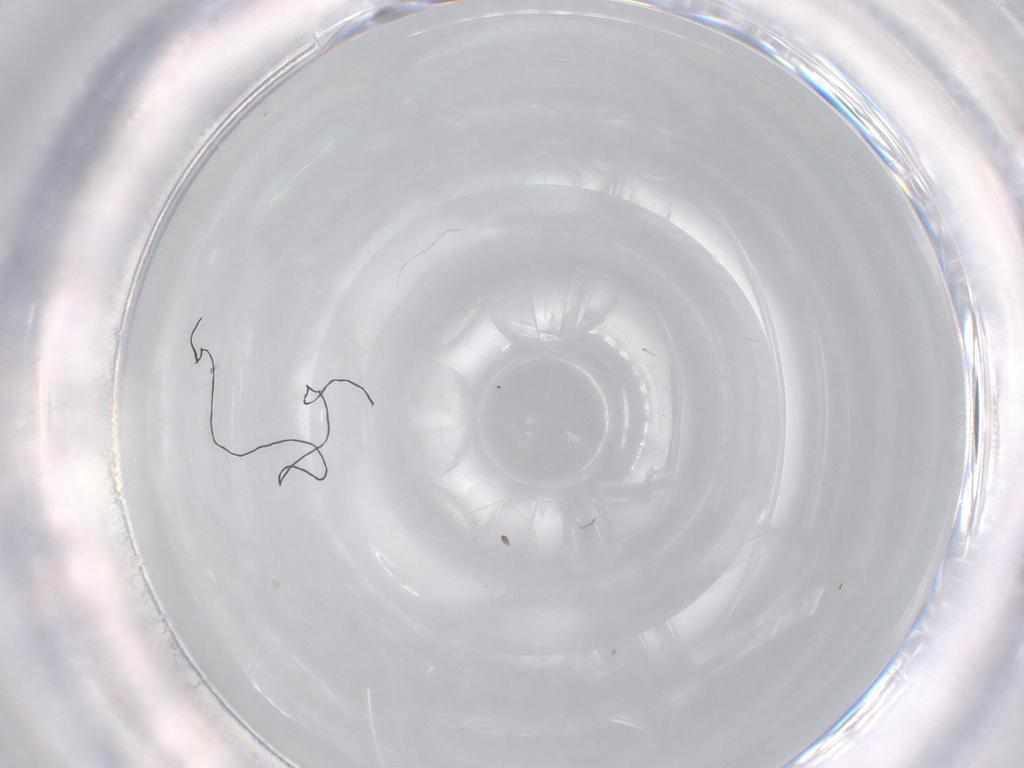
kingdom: Animalia
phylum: Arthropoda
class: Insecta
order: Diptera
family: Cecidomyiidae
